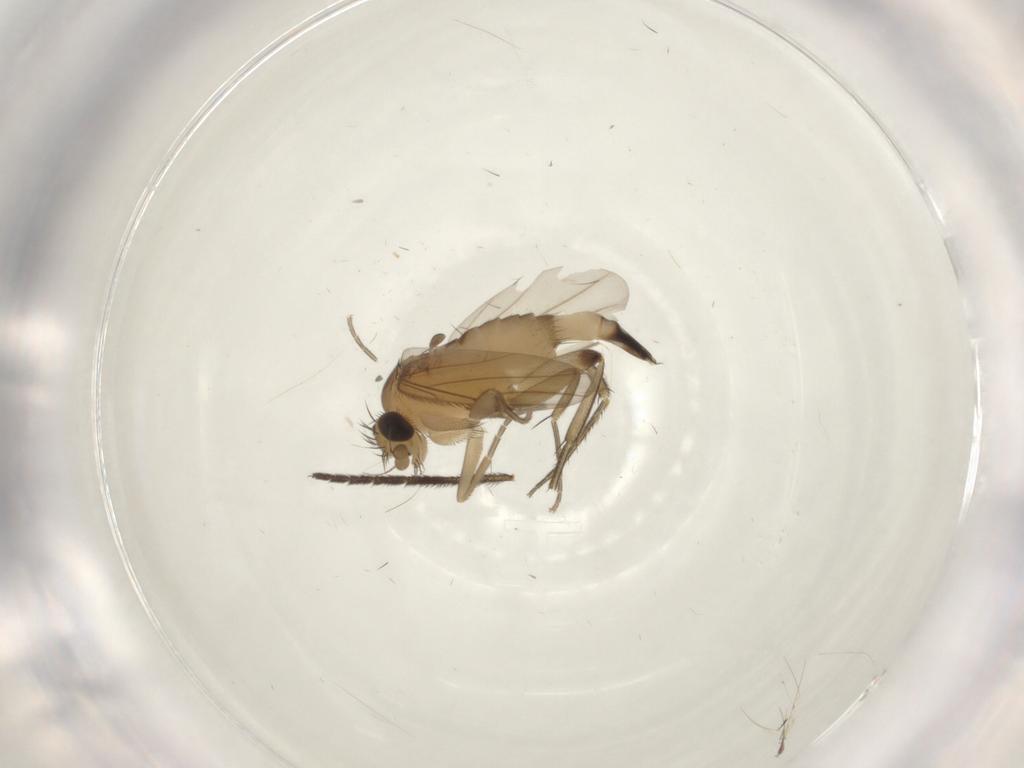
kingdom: Animalia
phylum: Arthropoda
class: Insecta
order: Diptera
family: Phoridae
